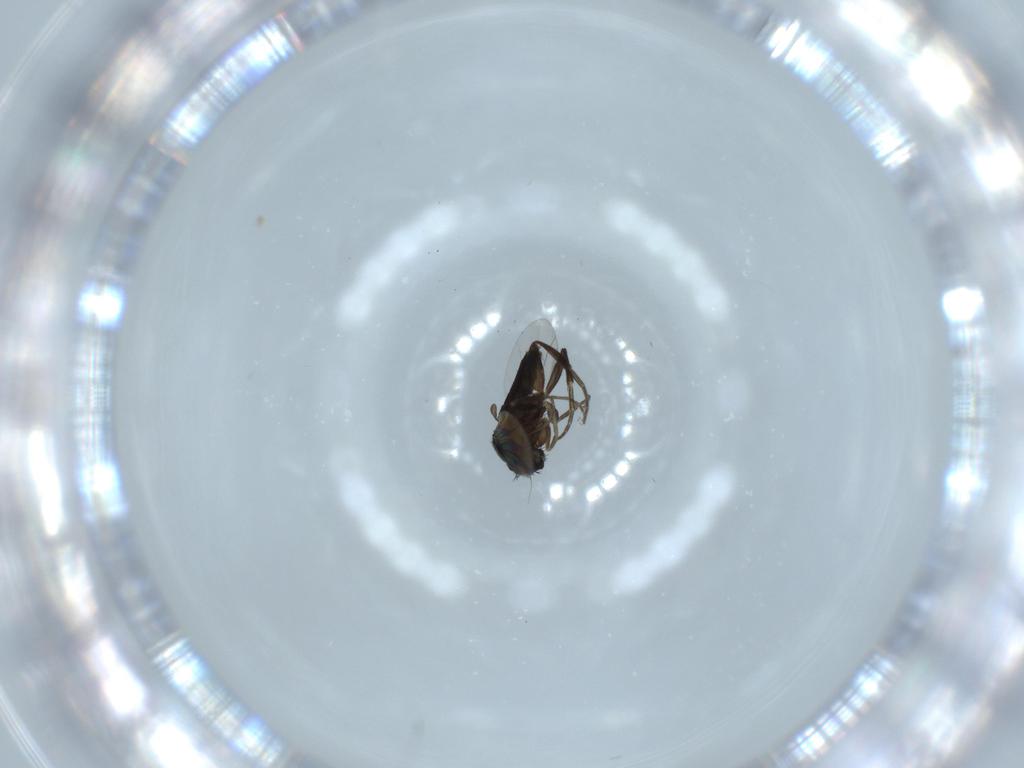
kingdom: Animalia
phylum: Arthropoda
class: Insecta
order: Diptera
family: Phoridae
